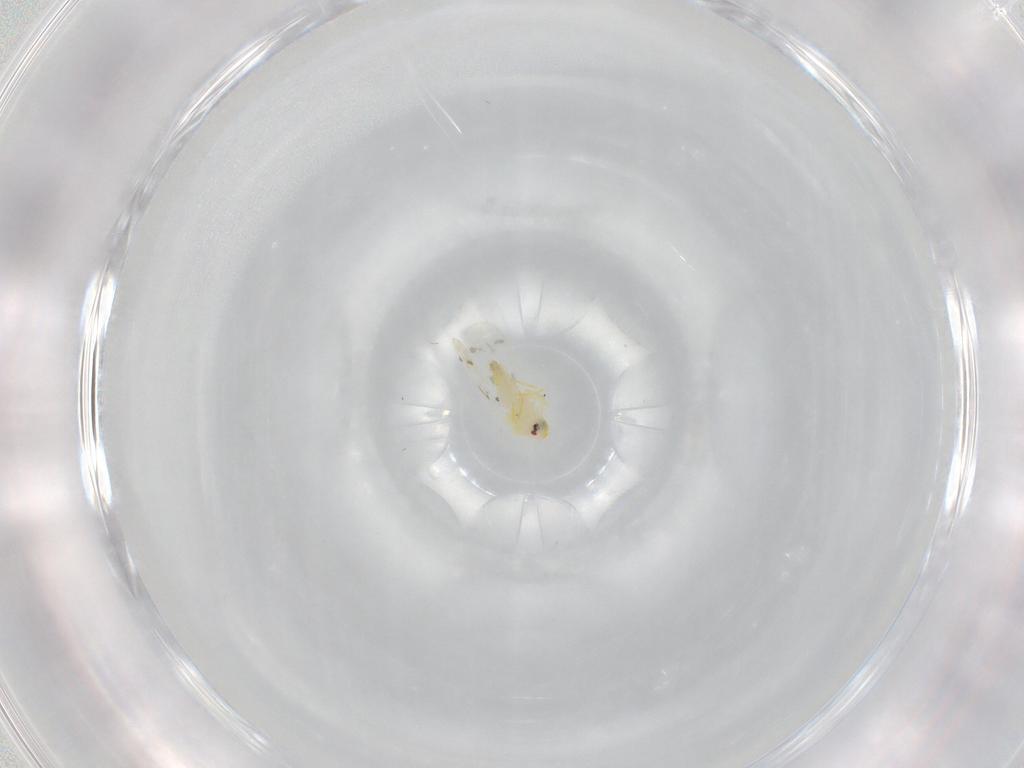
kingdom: Animalia
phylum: Arthropoda
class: Insecta
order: Hemiptera
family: Aleyrodidae
